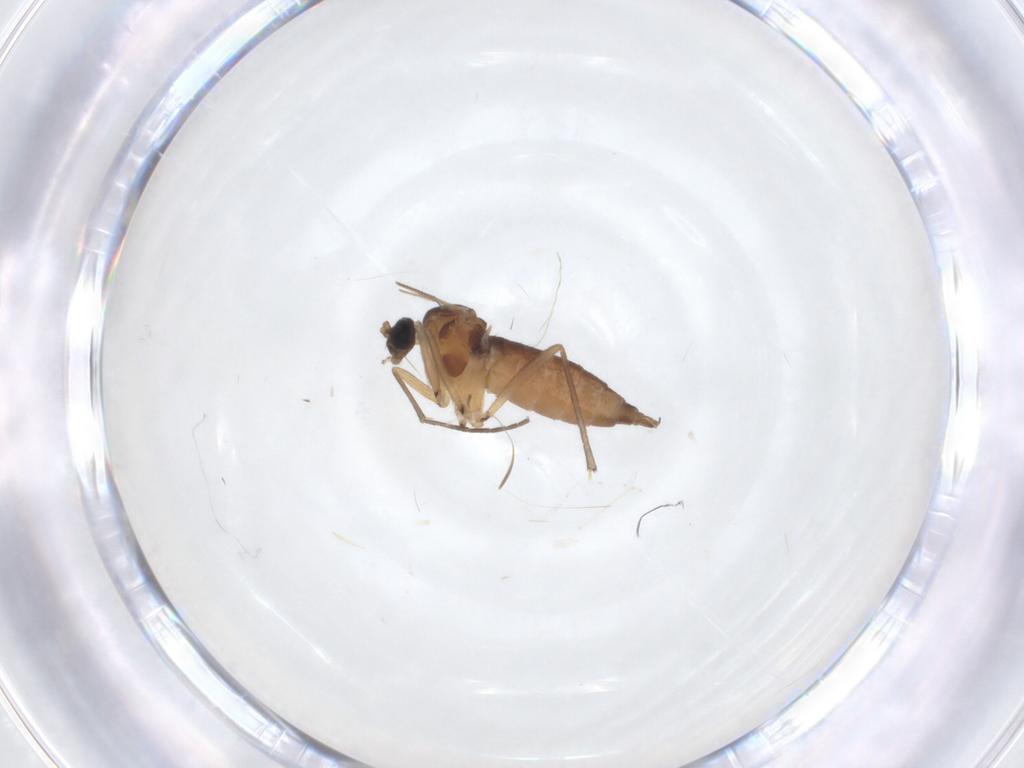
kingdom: Animalia
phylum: Arthropoda
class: Insecta
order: Diptera
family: Sciaridae
